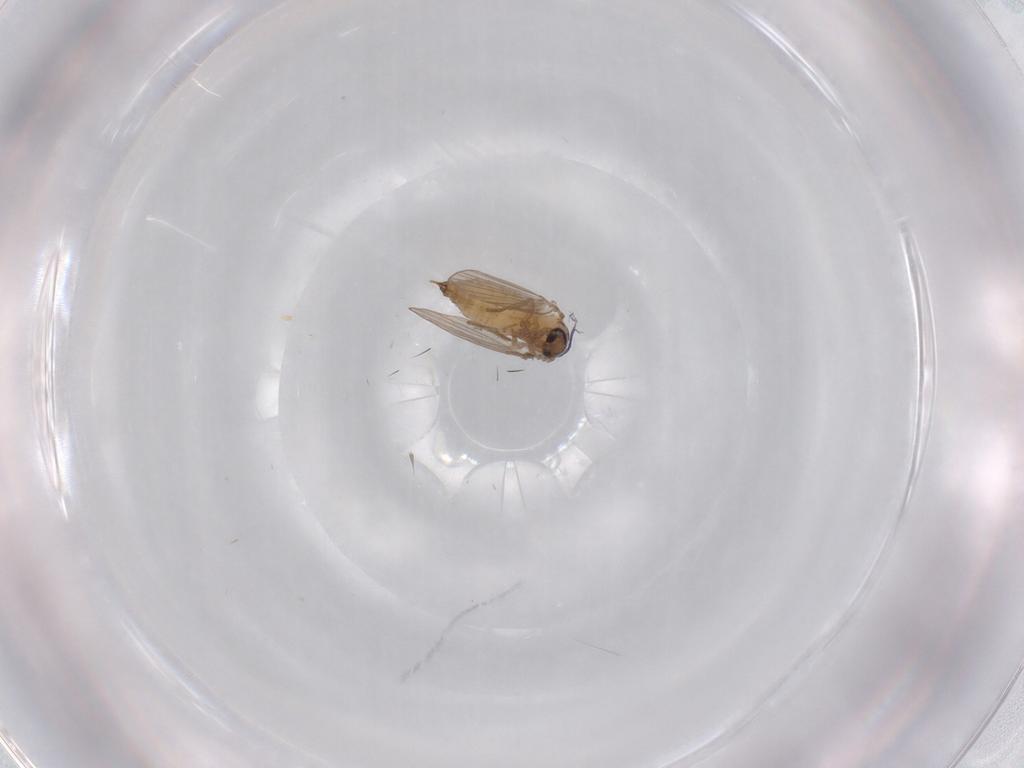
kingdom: Animalia
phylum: Arthropoda
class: Insecta
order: Diptera
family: Psychodidae
